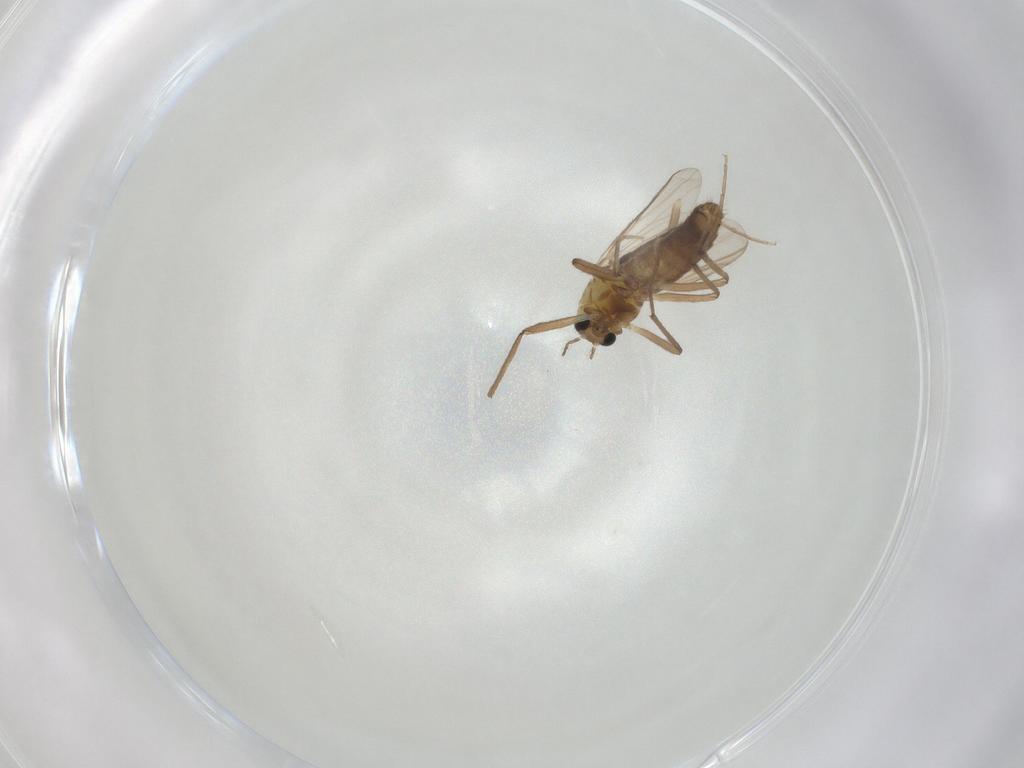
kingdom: Animalia
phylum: Arthropoda
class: Insecta
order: Diptera
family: Chironomidae
